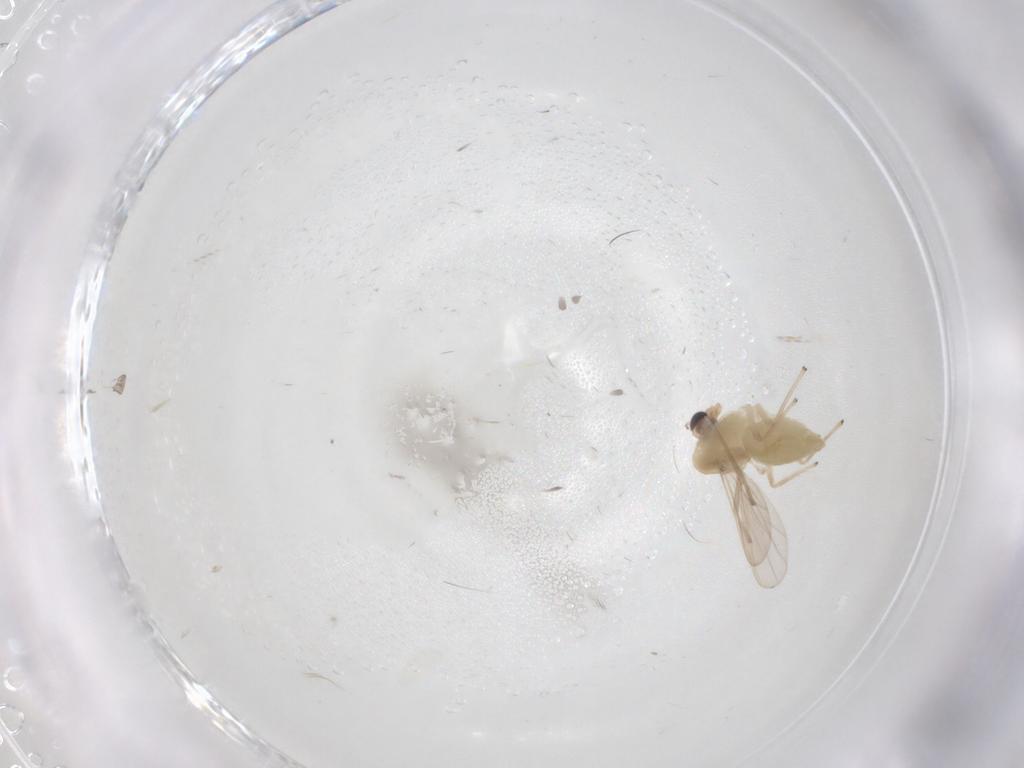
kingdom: Animalia
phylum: Arthropoda
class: Insecta
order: Diptera
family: Chironomidae
